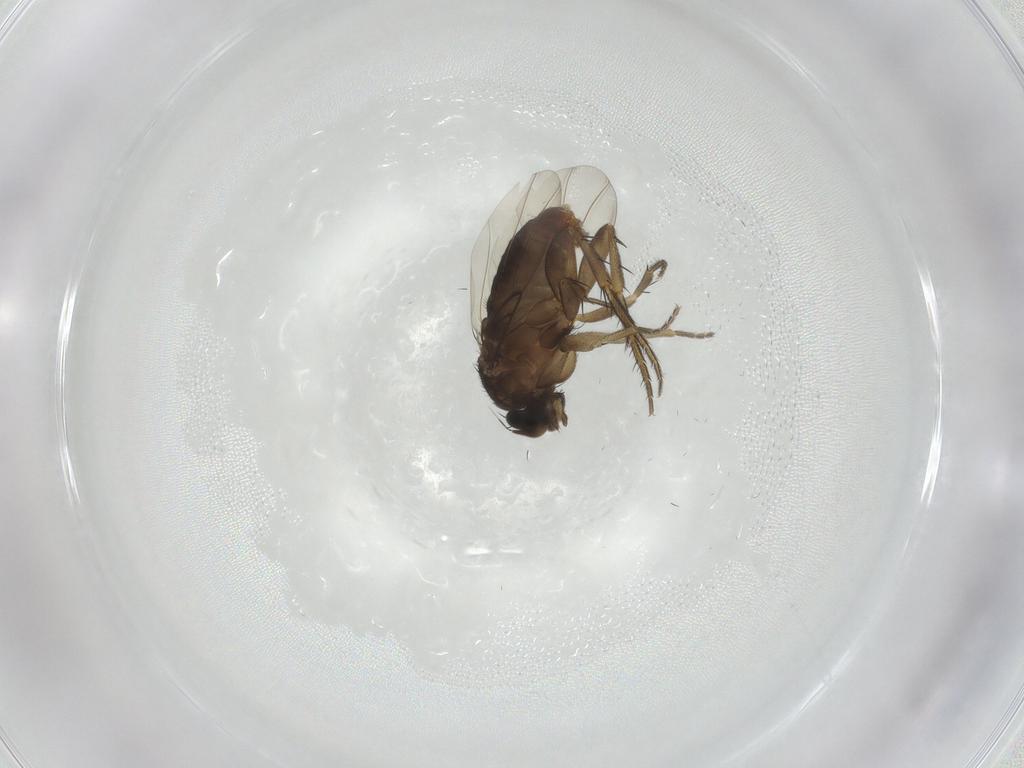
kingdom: Animalia
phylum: Arthropoda
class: Insecta
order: Diptera
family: Phoridae
